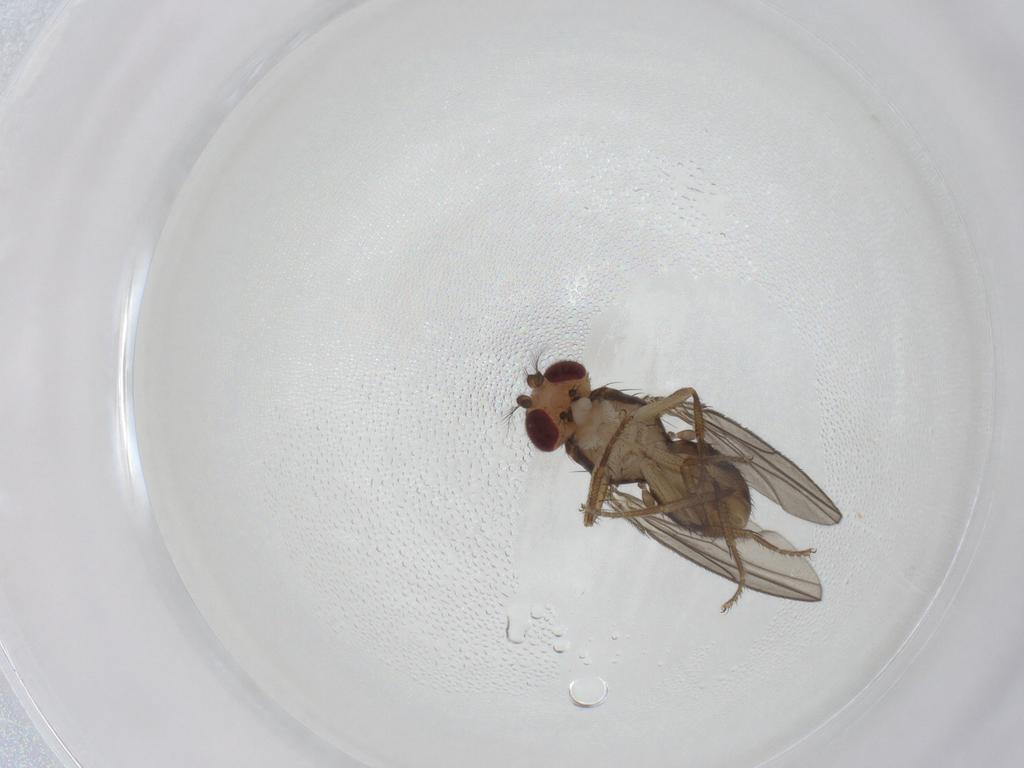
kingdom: Animalia
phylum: Arthropoda
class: Insecta
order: Diptera
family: Drosophilidae
